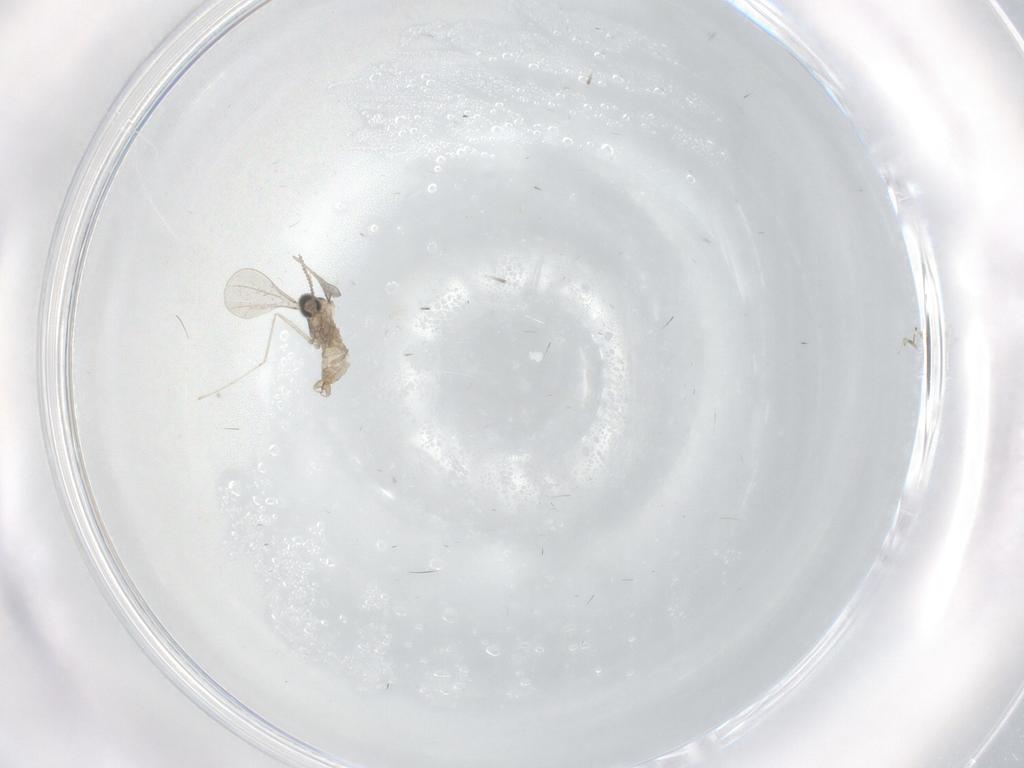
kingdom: Animalia
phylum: Arthropoda
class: Insecta
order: Diptera
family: Cecidomyiidae
